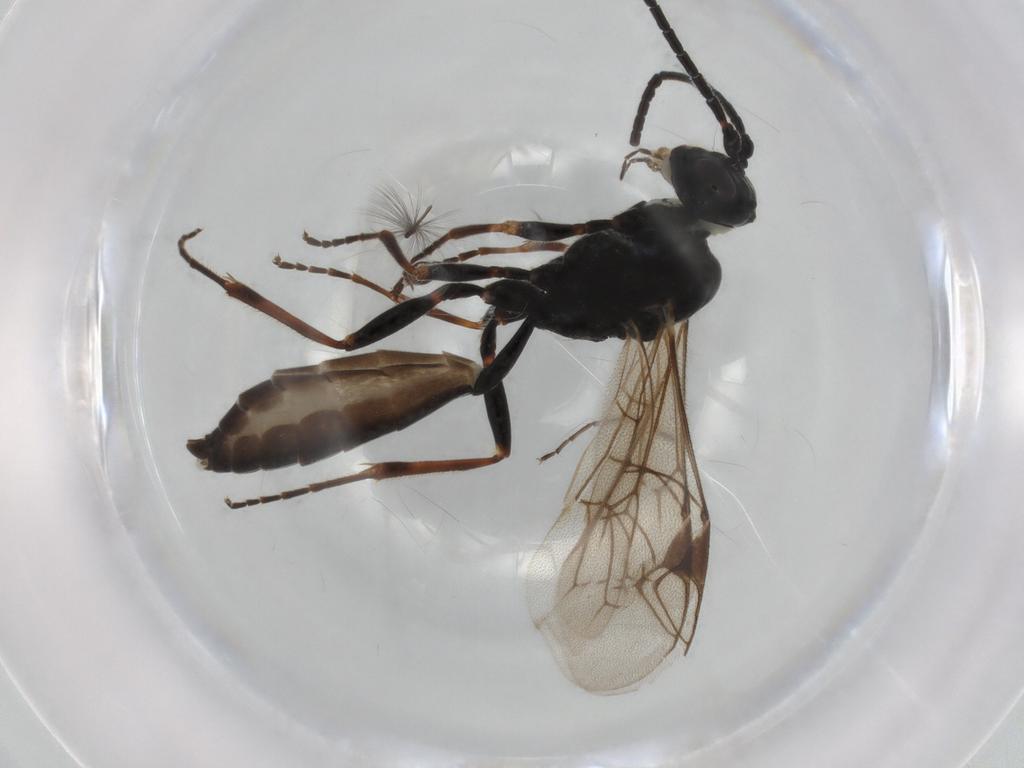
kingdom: Animalia
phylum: Arthropoda
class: Insecta
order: Hymenoptera
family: Ichneumonidae
